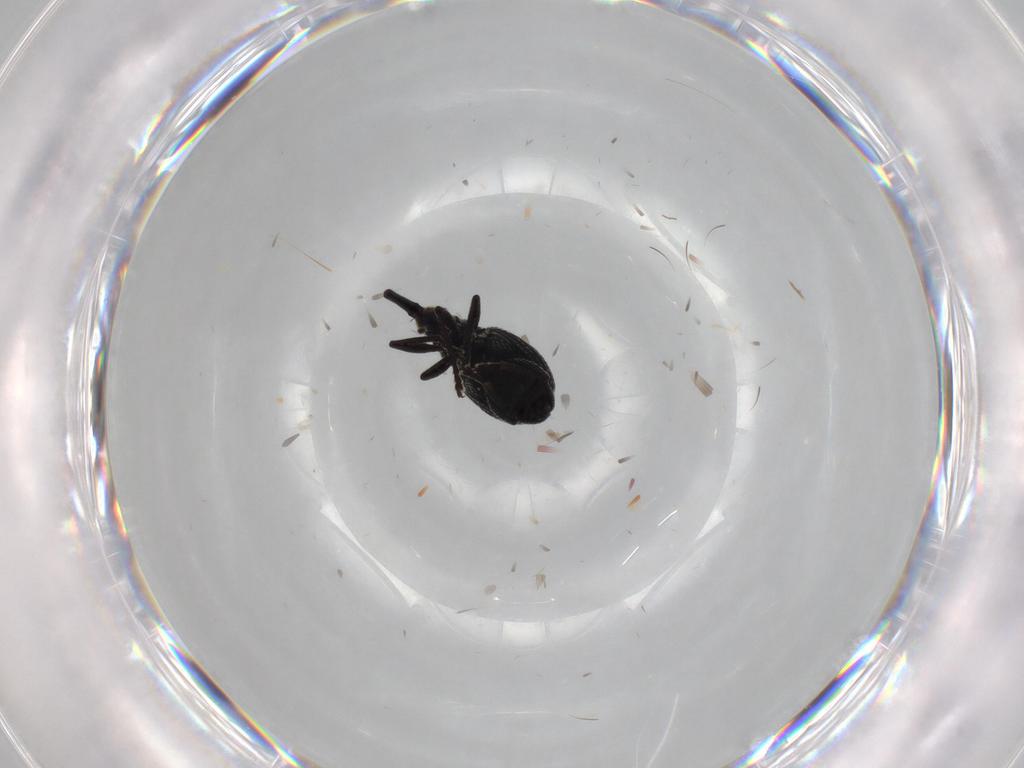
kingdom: Animalia
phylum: Arthropoda
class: Insecta
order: Coleoptera
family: Brentidae
